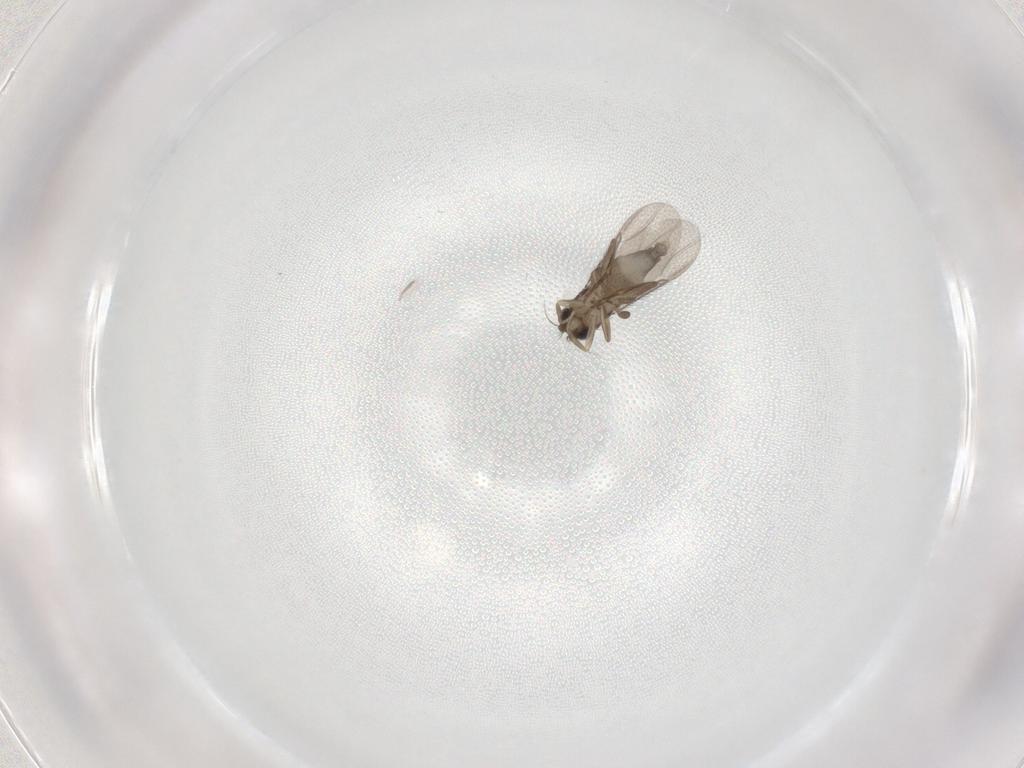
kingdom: Animalia
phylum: Arthropoda
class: Insecta
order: Diptera
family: Phoridae
